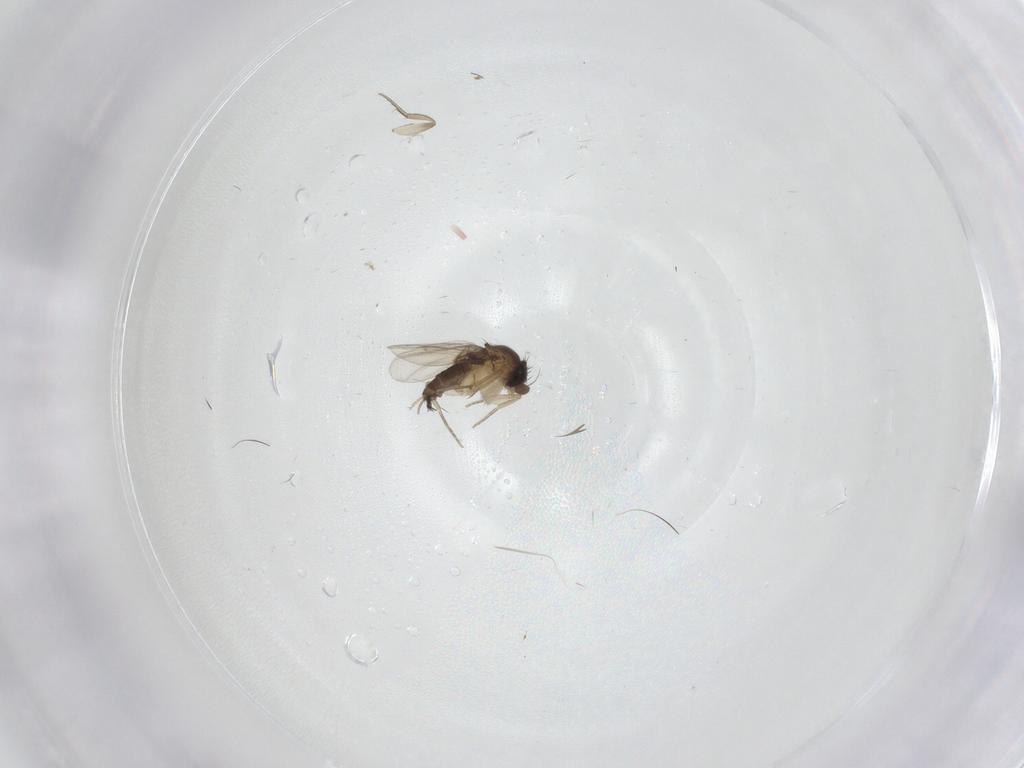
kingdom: Animalia
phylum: Arthropoda
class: Insecta
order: Diptera
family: Phoridae
